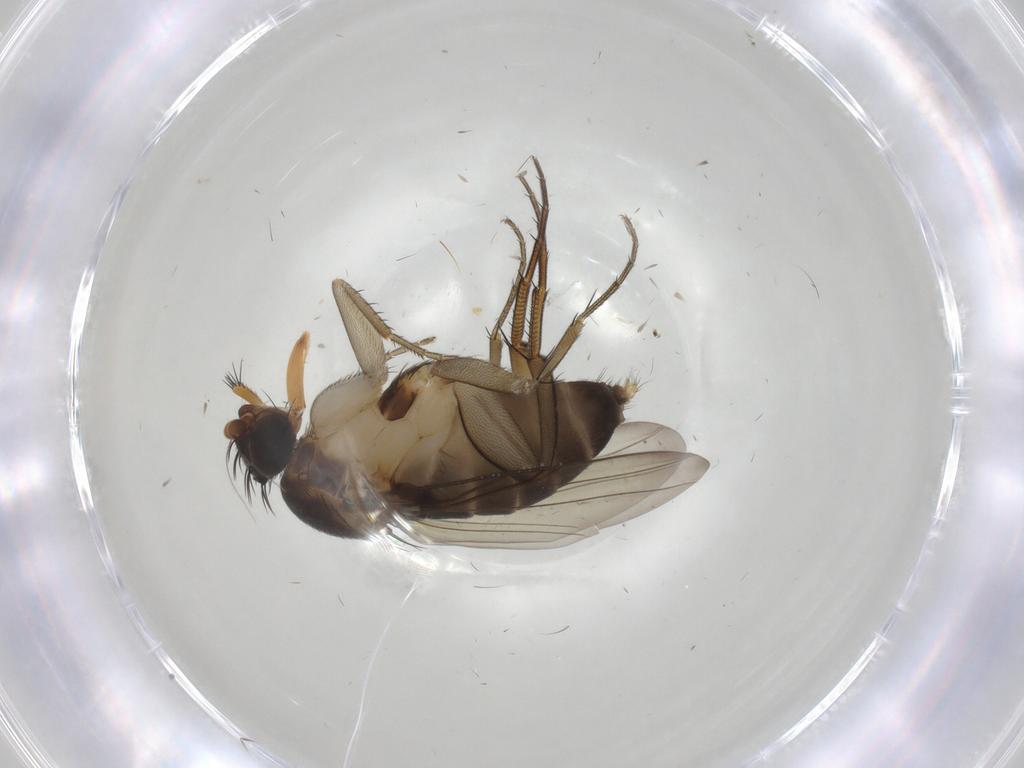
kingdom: Animalia
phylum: Arthropoda
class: Insecta
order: Diptera
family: Phoridae
